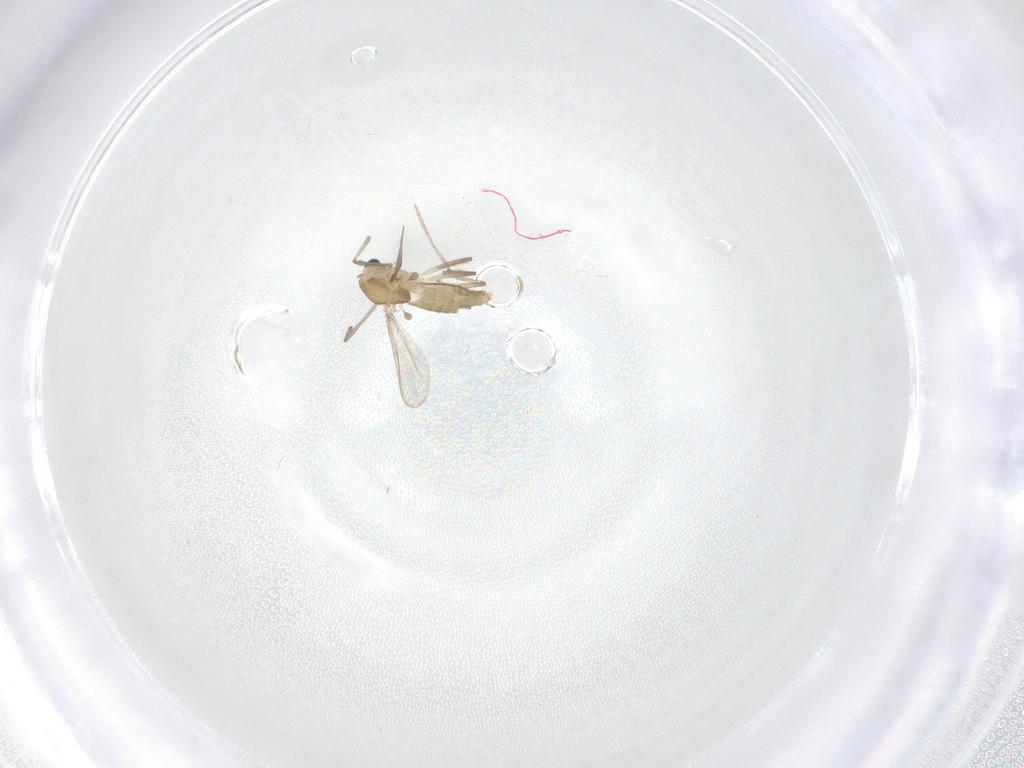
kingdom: Animalia
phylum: Arthropoda
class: Insecta
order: Diptera
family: Chironomidae
